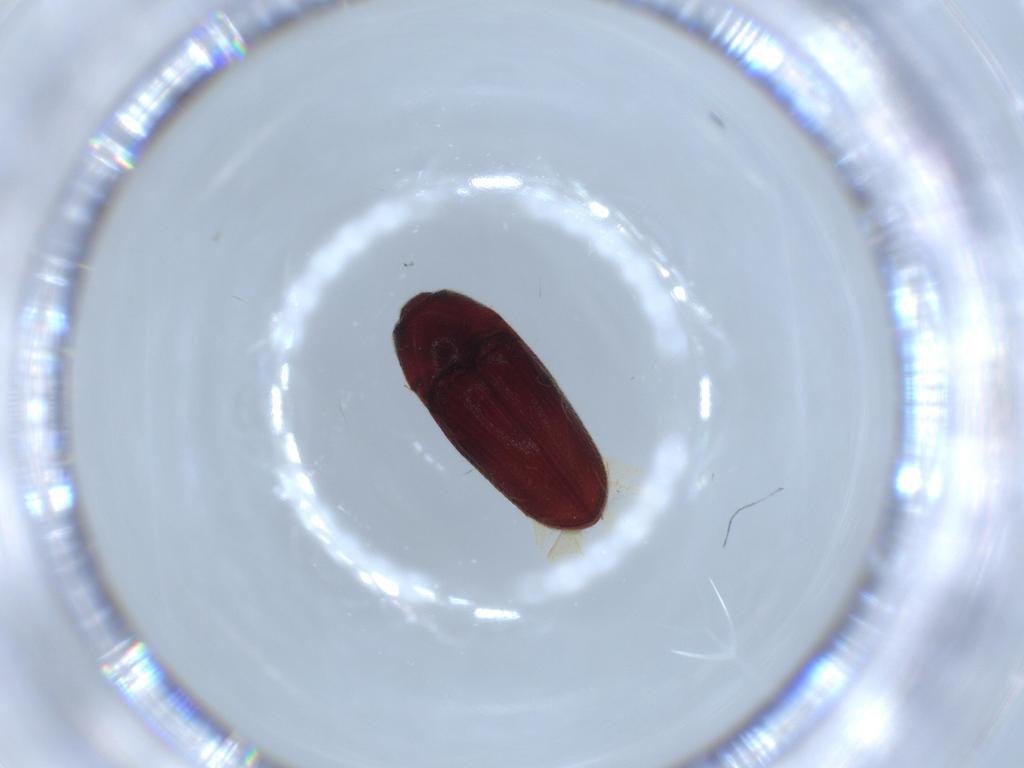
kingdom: Animalia
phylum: Arthropoda
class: Insecta
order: Coleoptera
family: Throscidae
